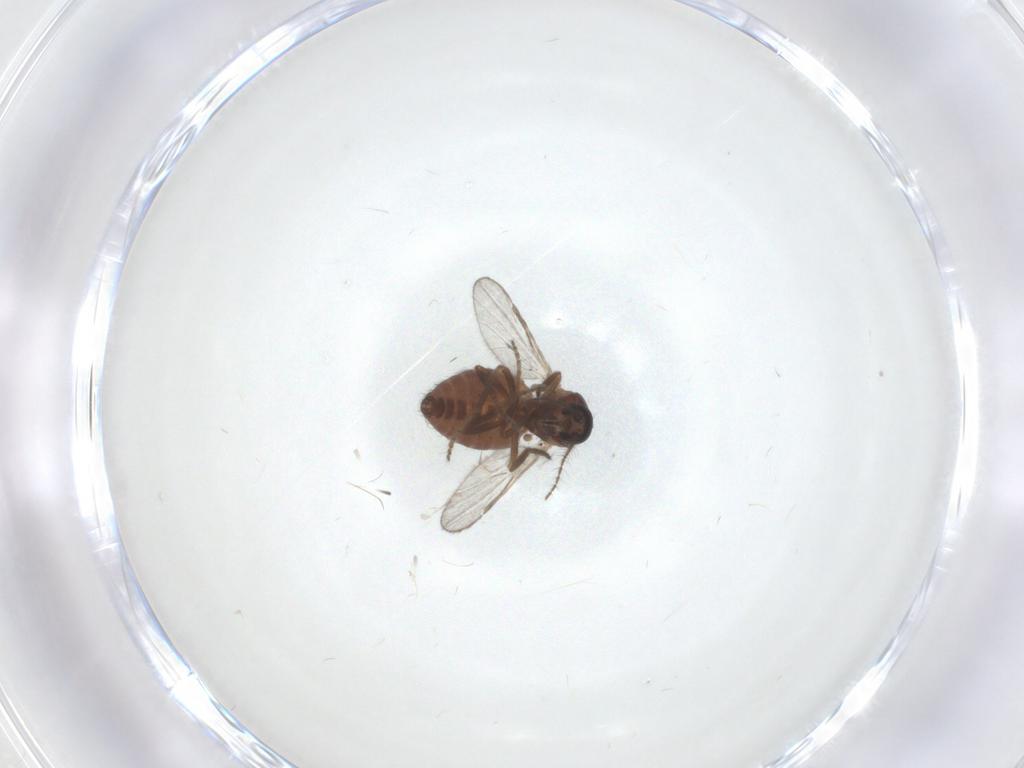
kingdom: Animalia
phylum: Arthropoda
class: Insecta
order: Diptera
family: Ceratopogonidae
